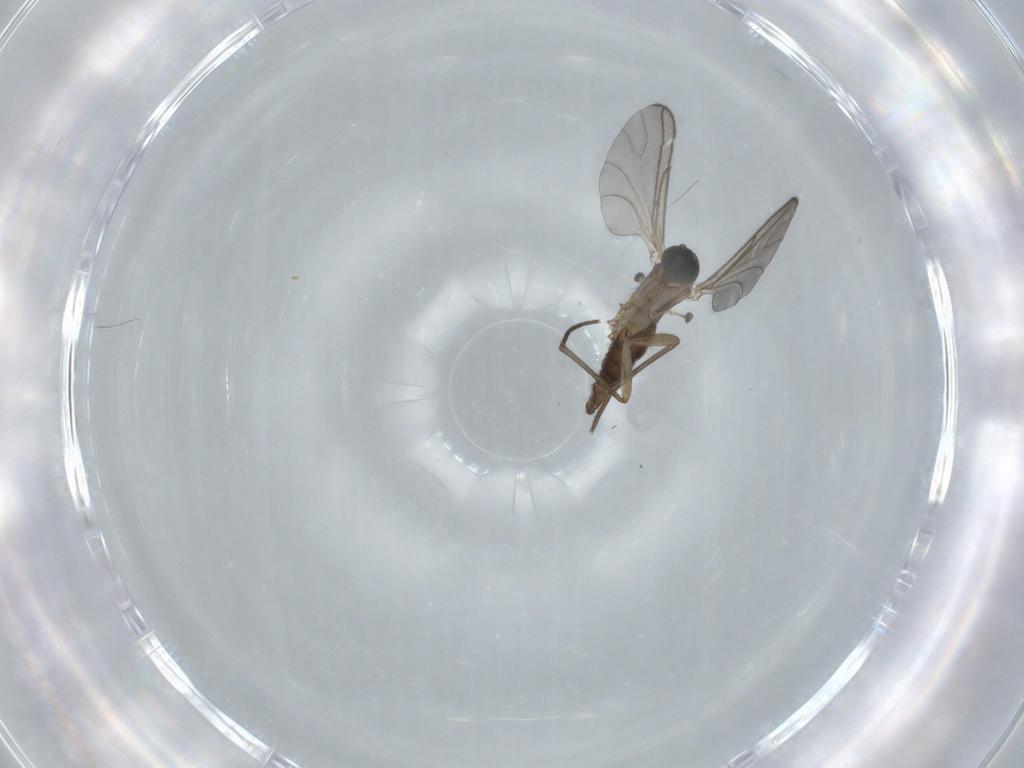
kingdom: Animalia
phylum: Arthropoda
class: Insecta
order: Diptera
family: Sciaridae
